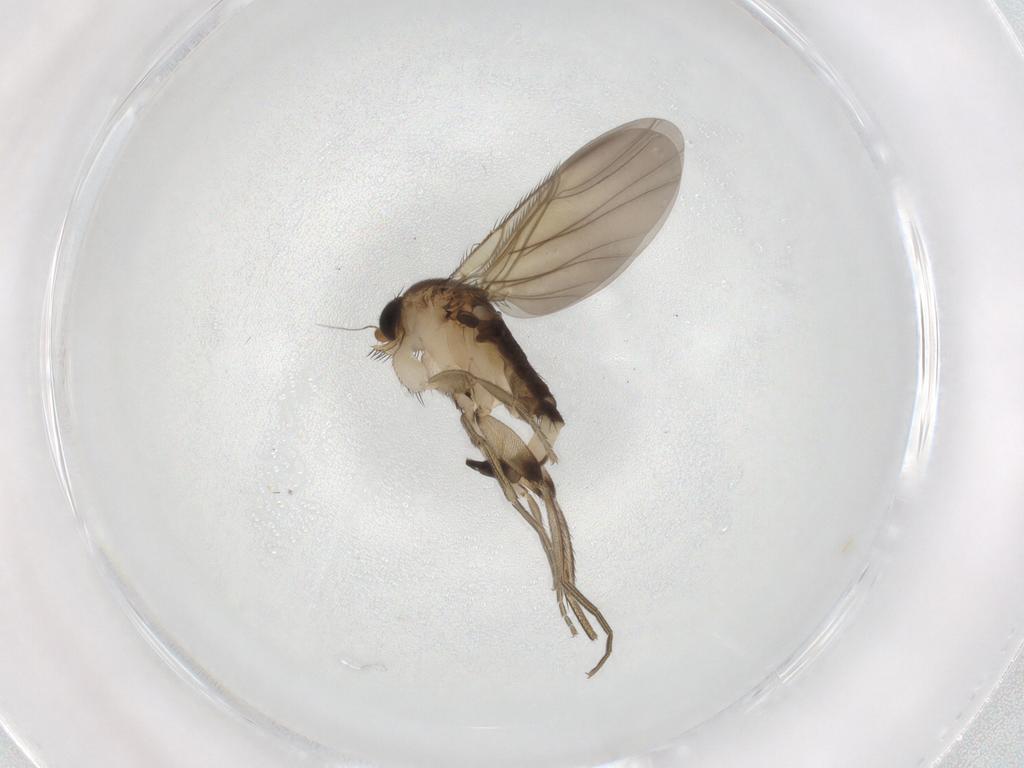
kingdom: Animalia
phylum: Arthropoda
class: Insecta
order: Diptera
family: Phoridae
